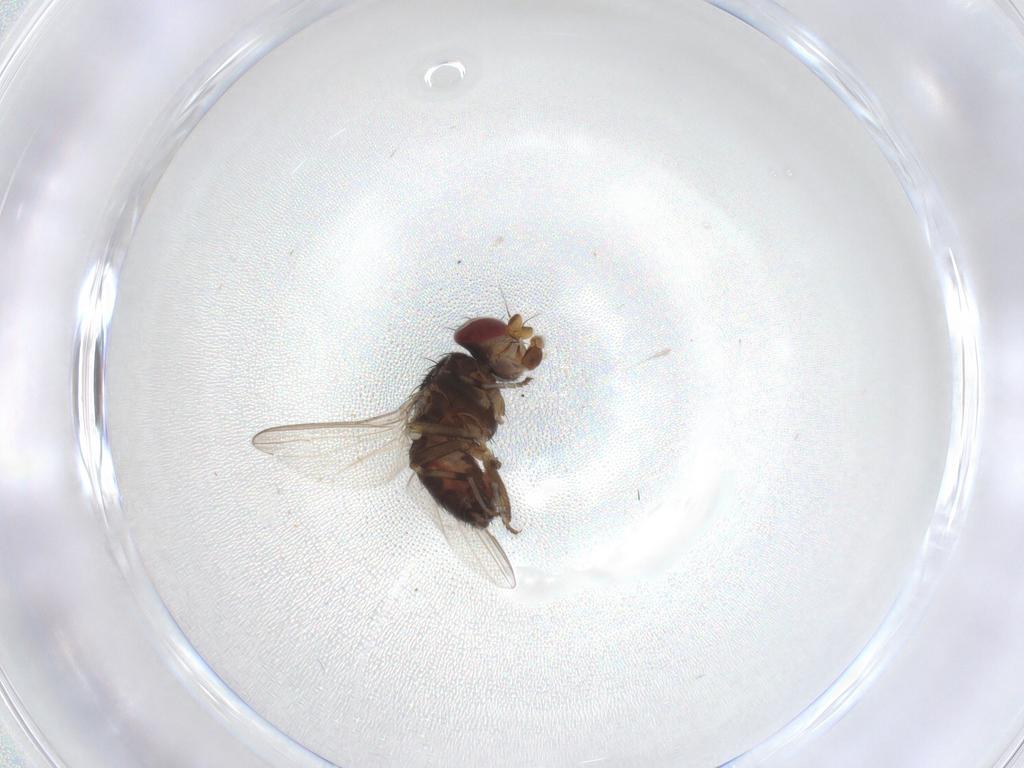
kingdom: Animalia
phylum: Arthropoda
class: Insecta
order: Diptera
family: Heleomyzidae
